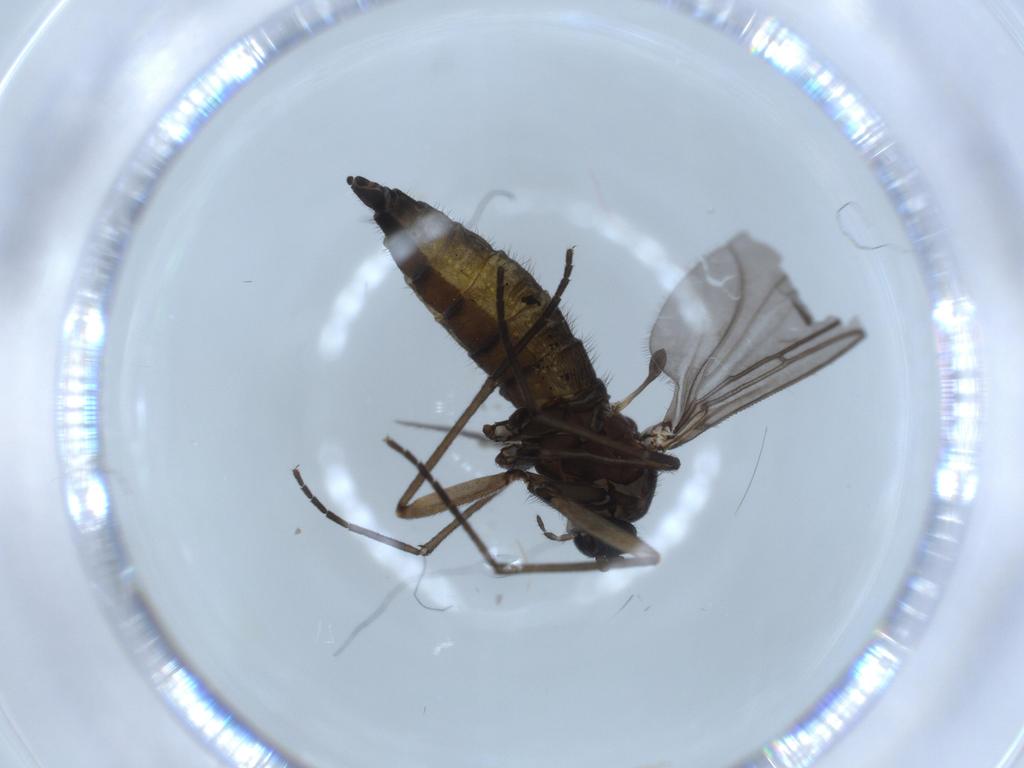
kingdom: Animalia
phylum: Arthropoda
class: Insecta
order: Diptera
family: Sciaridae
